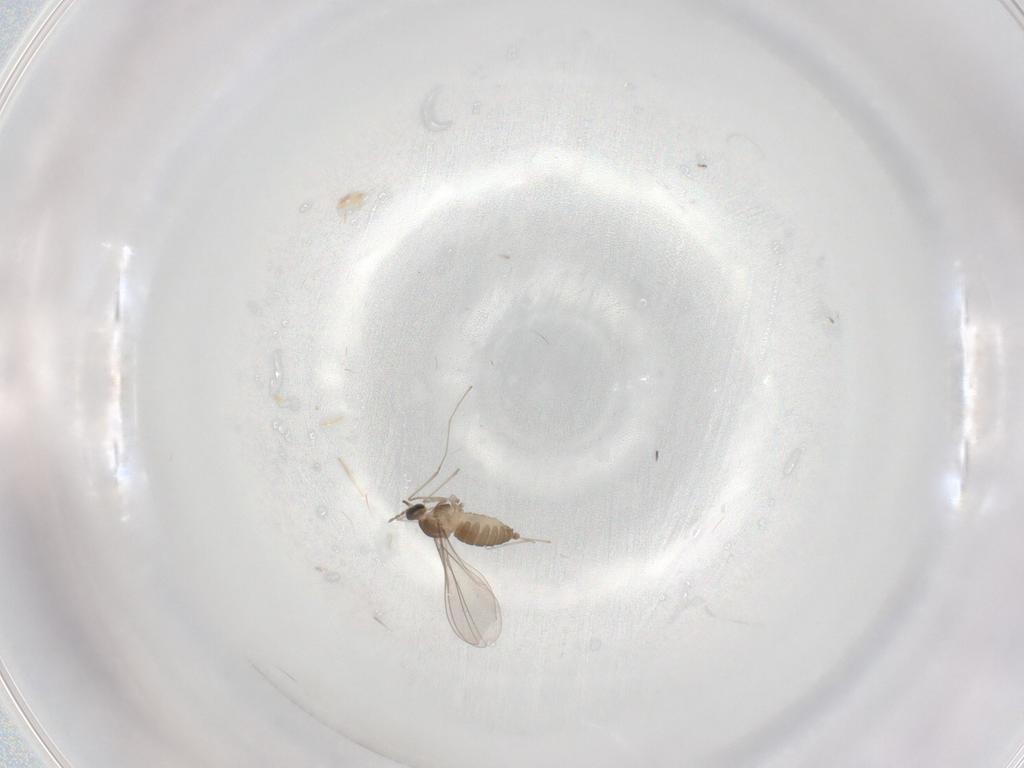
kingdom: Animalia
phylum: Arthropoda
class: Insecta
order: Diptera
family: Cecidomyiidae
